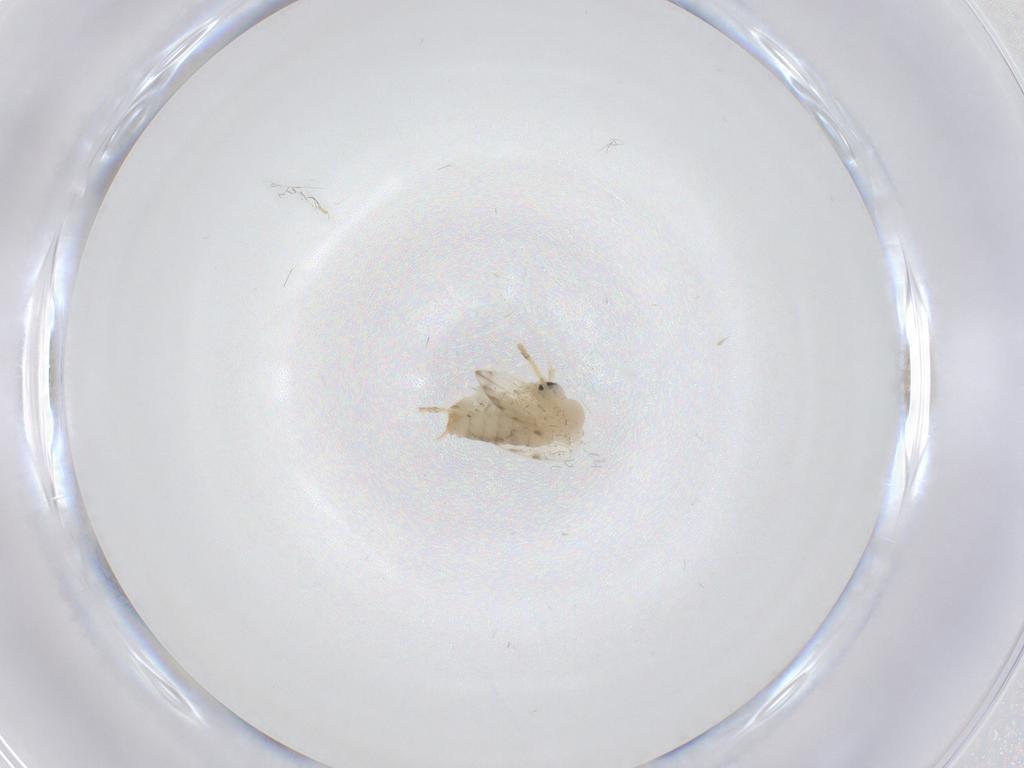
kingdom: Animalia
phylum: Arthropoda
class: Insecta
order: Diptera
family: Psychodidae
